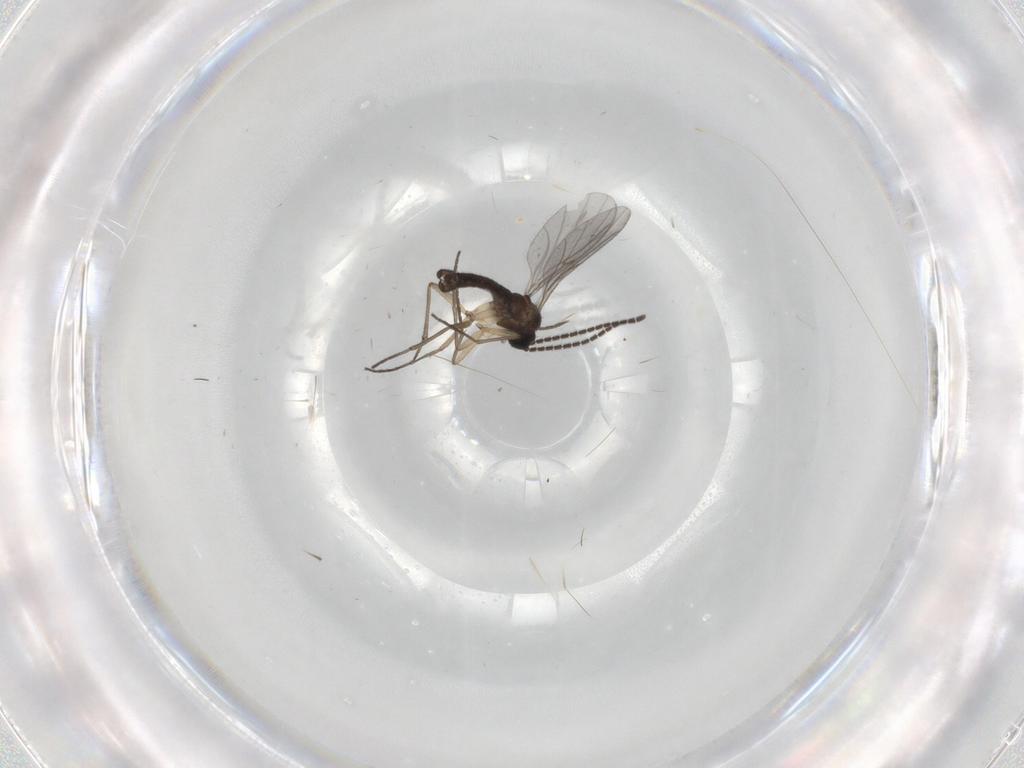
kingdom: Animalia
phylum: Arthropoda
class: Insecta
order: Diptera
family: Sciaridae
